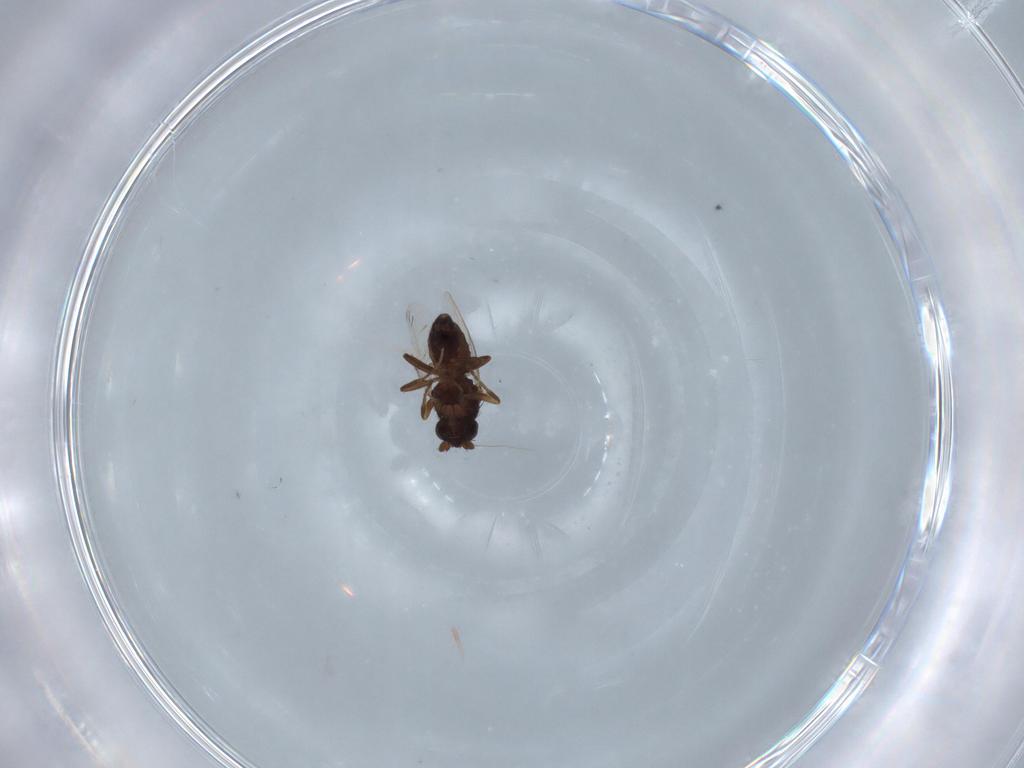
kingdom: Animalia
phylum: Arthropoda
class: Insecta
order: Diptera
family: Sphaeroceridae
